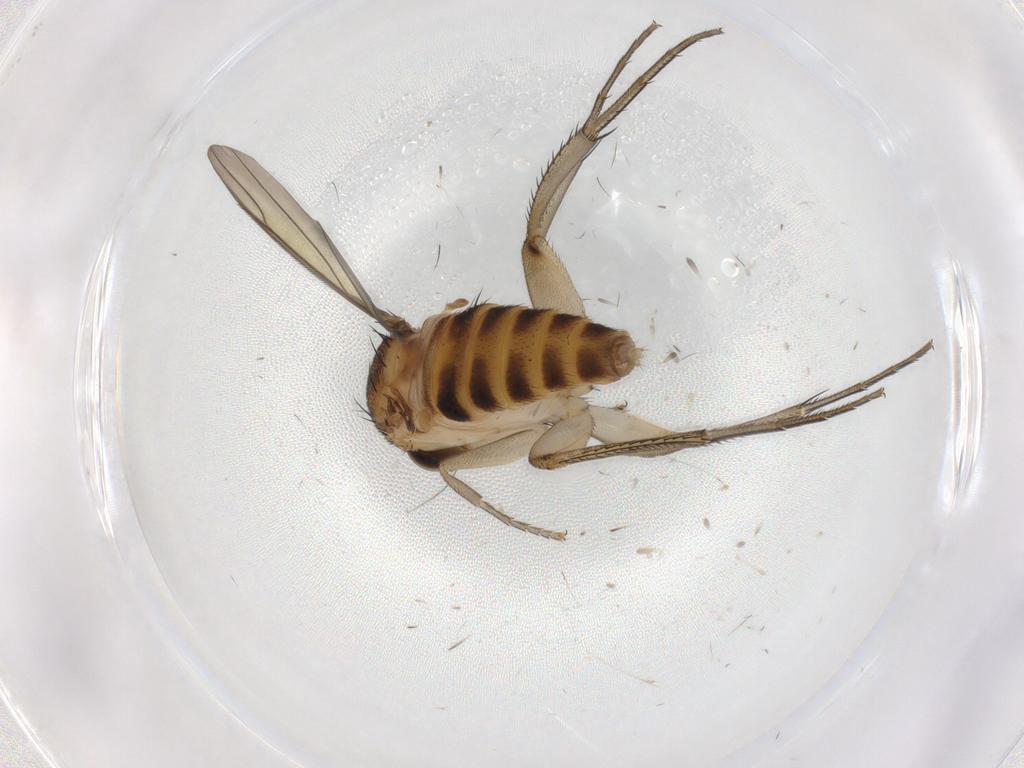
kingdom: Animalia
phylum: Arthropoda
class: Insecta
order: Diptera
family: Phoridae
